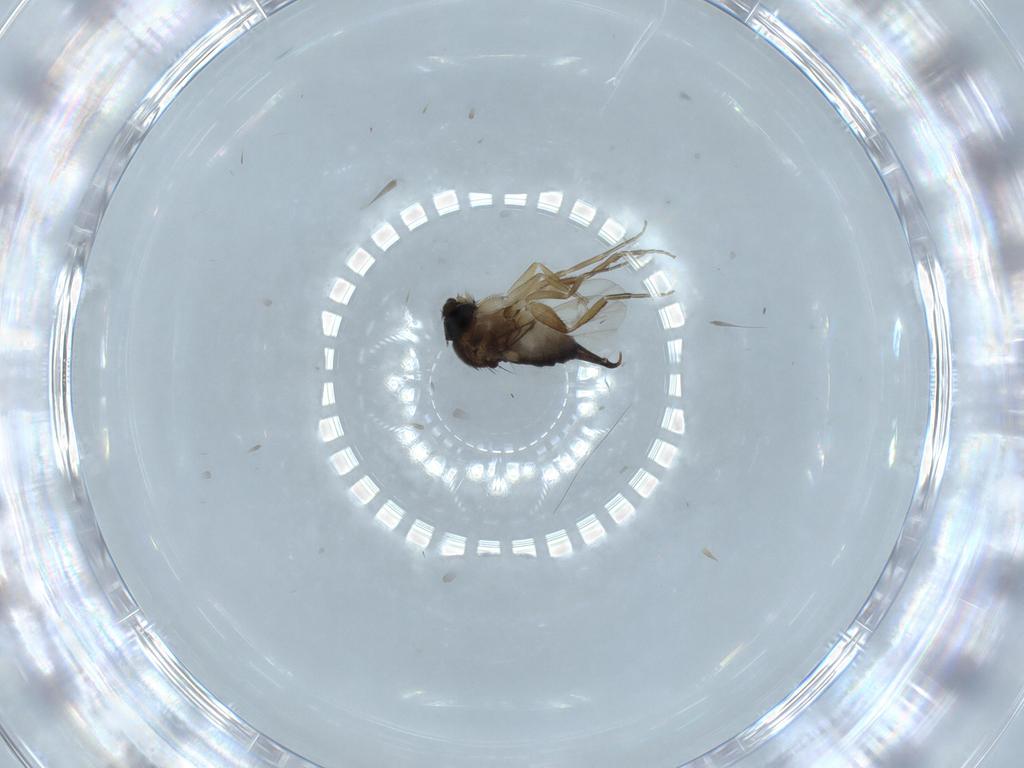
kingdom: Animalia
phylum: Arthropoda
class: Insecta
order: Diptera
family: Phoridae
